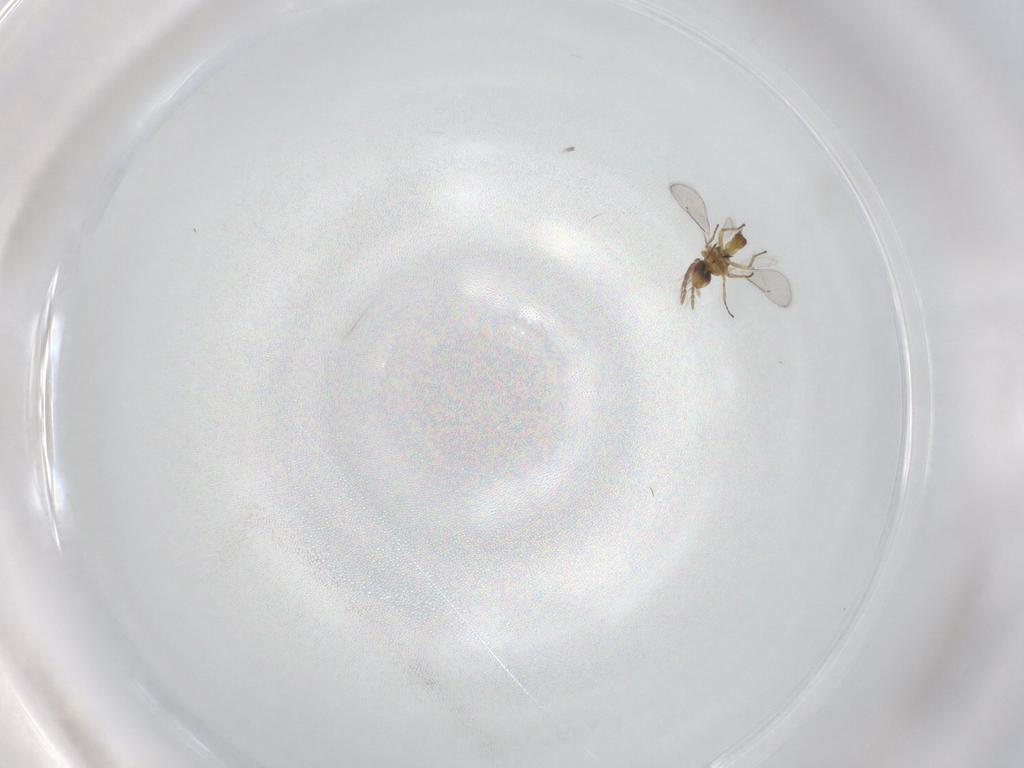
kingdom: Animalia
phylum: Arthropoda
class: Insecta
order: Hymenoptera
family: Eulophidae
